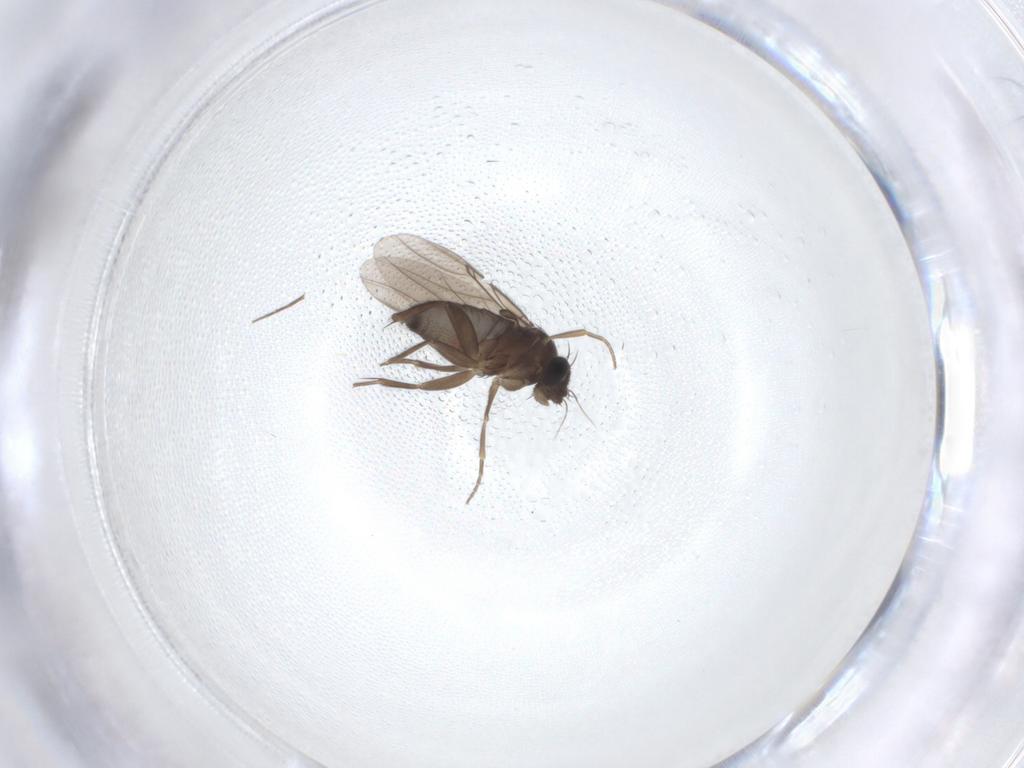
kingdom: Animalia
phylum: Arthropoda
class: Insecta
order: Diptera
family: Phoridae
